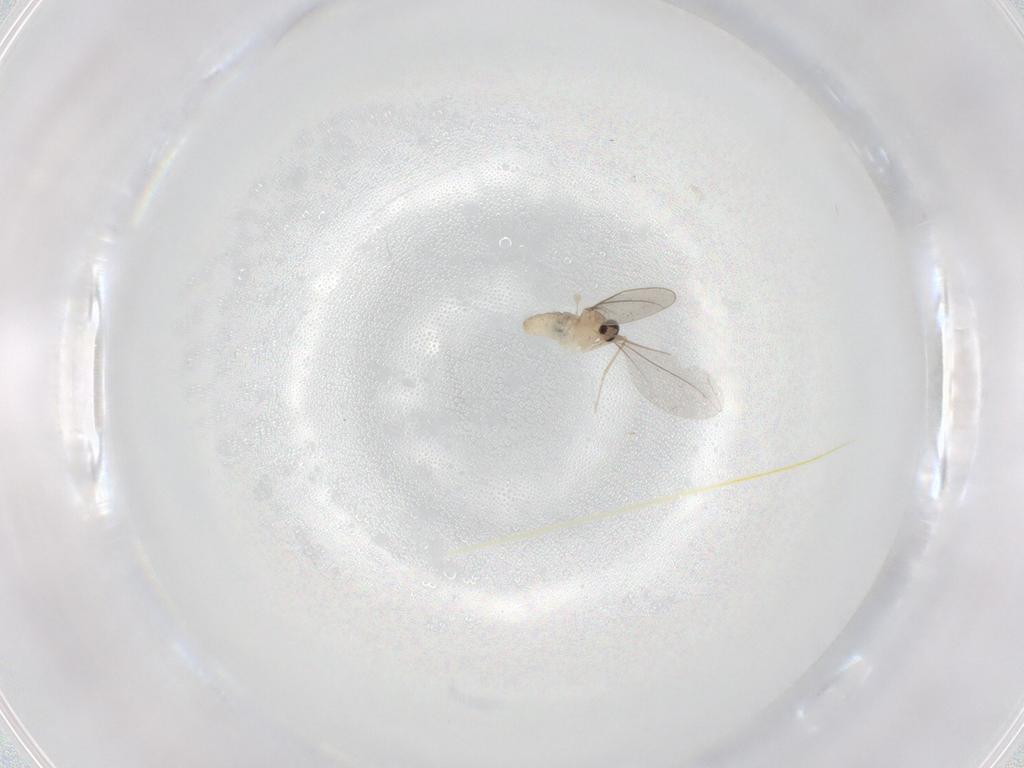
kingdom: Animalia
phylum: Arthropoda
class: Insecta
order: Diptera
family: Cecidomyiidae
